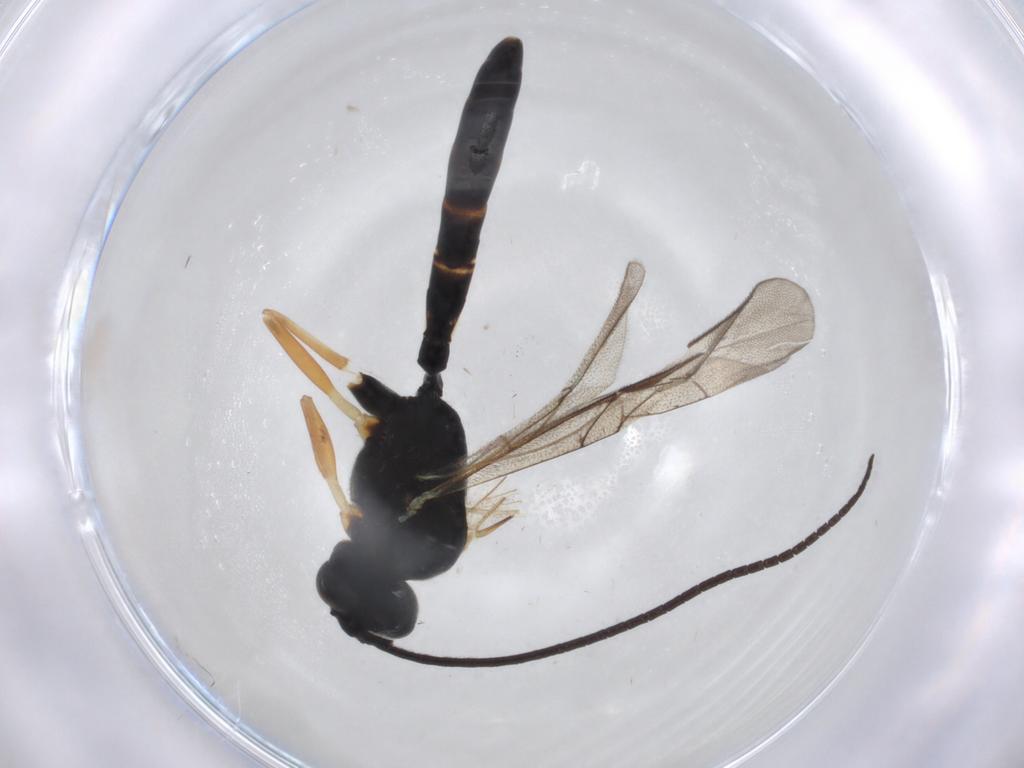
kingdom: Animalia
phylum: Arthropoda
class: Insecta
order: Hymenoptera
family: Ichneumonidae
